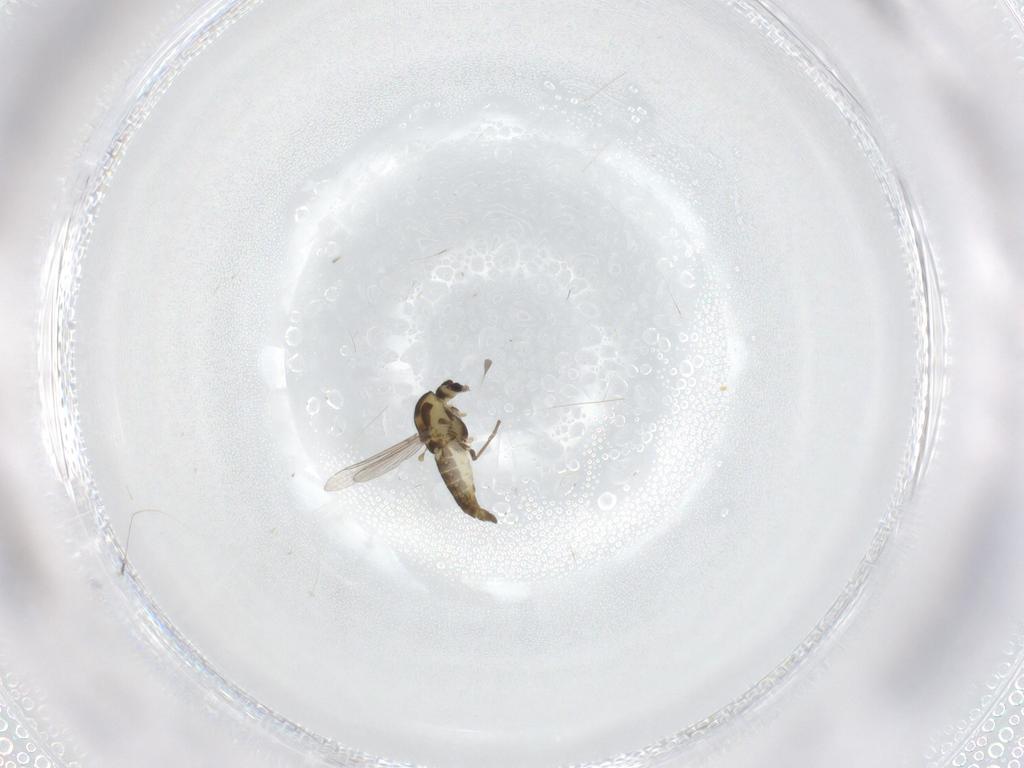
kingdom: Animalia
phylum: Arthropoda
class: Insecta
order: Diptera
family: Chironomidae
